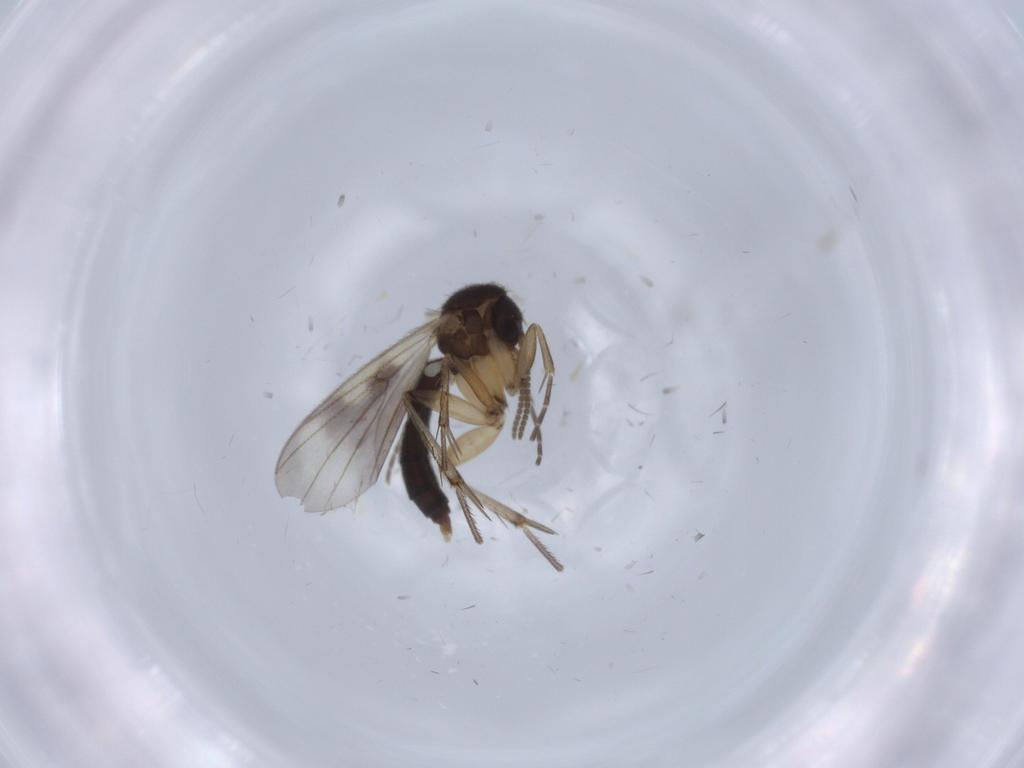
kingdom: Animalia
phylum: Arthropoda
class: Insecta
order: Diptera
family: Lonchaeidae
